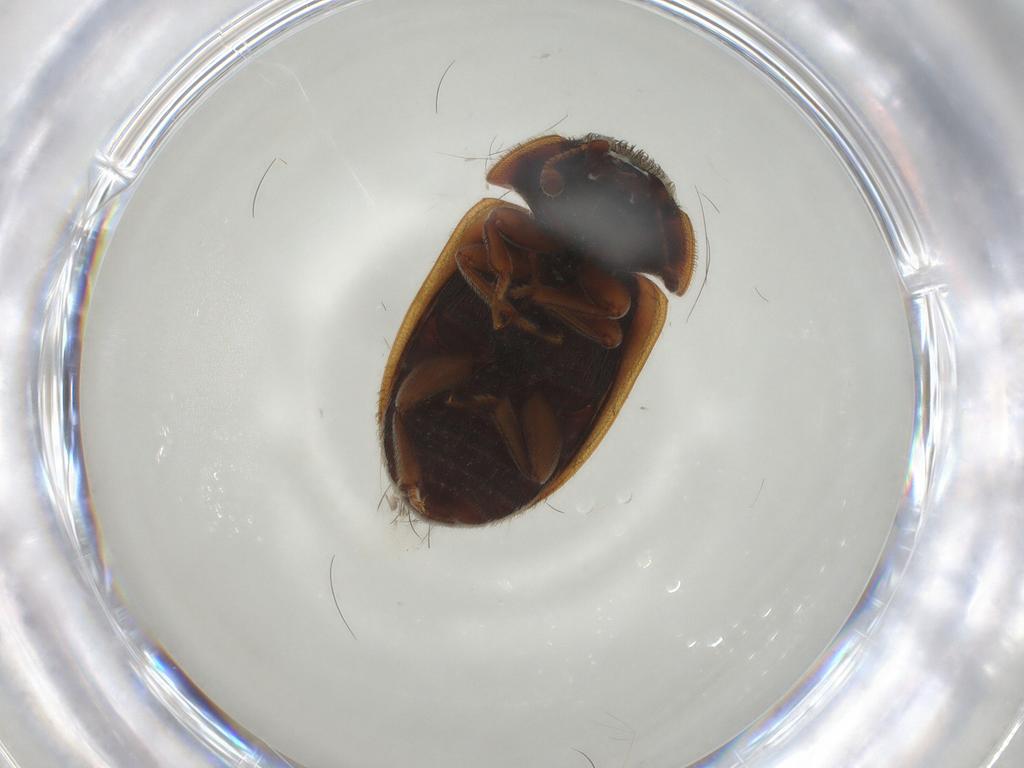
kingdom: Animalia
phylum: Arthropoda
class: Insecta
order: Coleoptera
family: Nitidulidae
